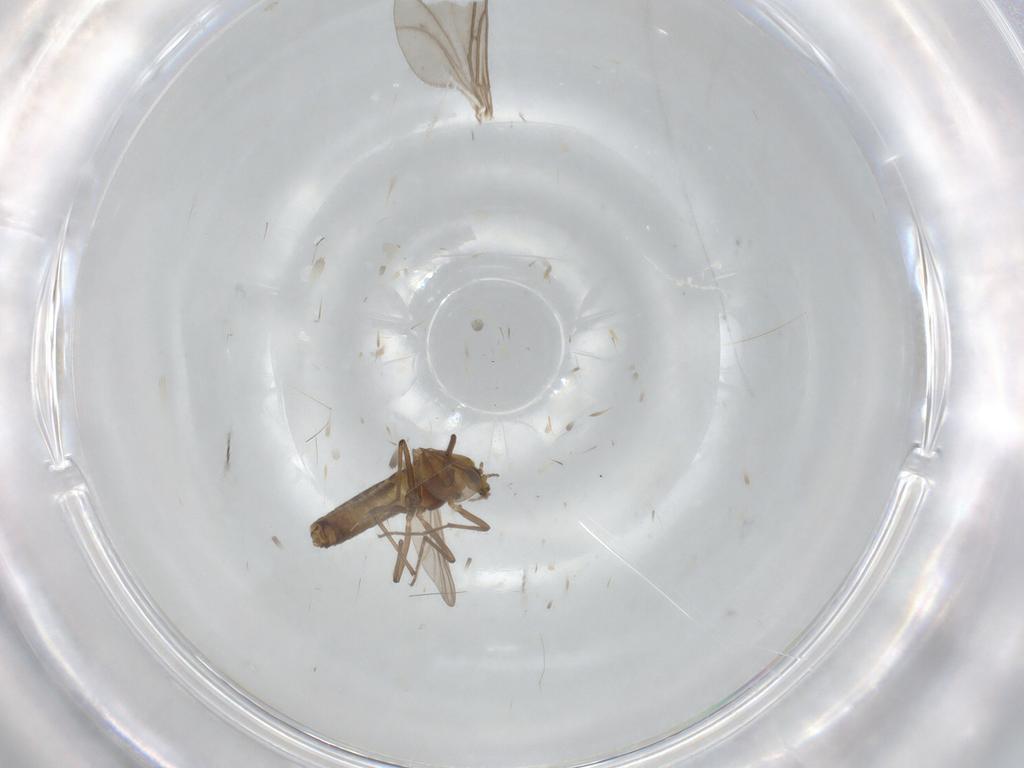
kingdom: Animalia
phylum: Arthropoda
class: Insecta
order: Diptera
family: Chironomidae
